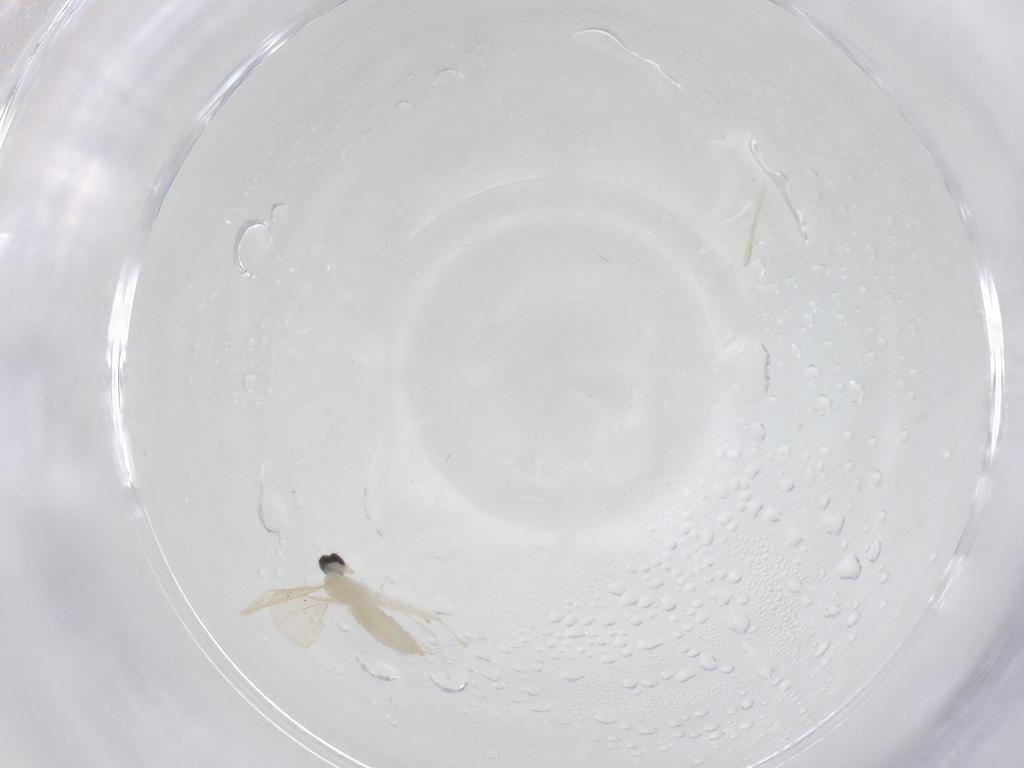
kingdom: Animalia
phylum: Arthropoda
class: Insecta
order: Diptera
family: Cecidomyiidae
